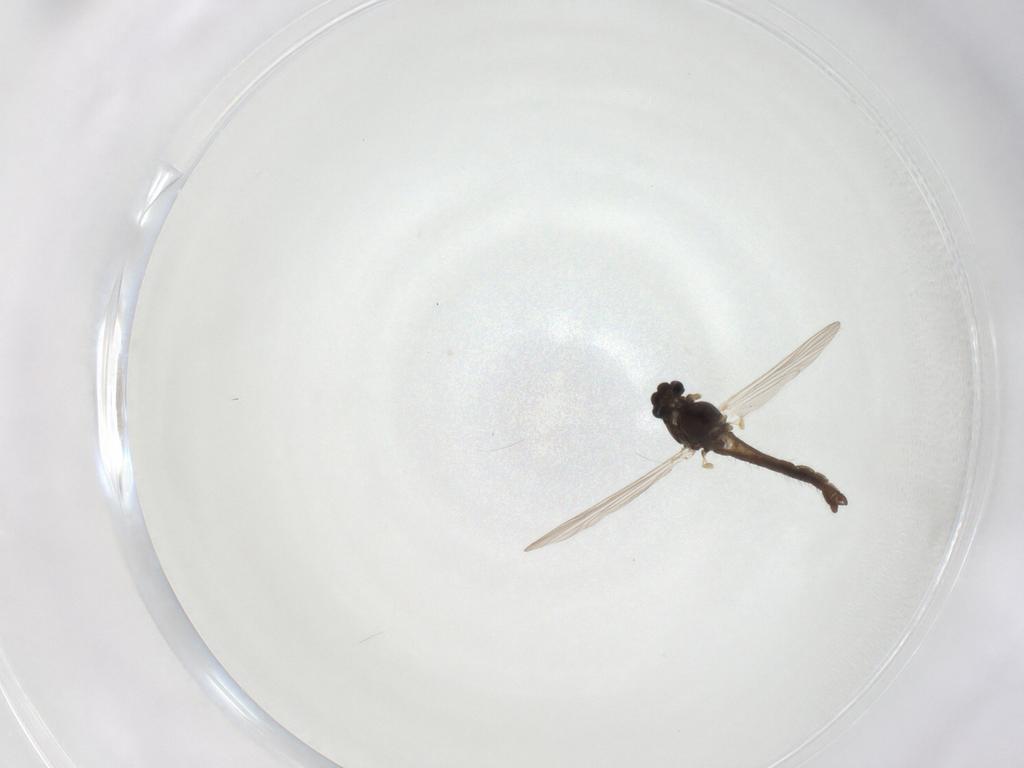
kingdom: Animalia
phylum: Arthropoda
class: Insecta
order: Diptera
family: Chironomidae
